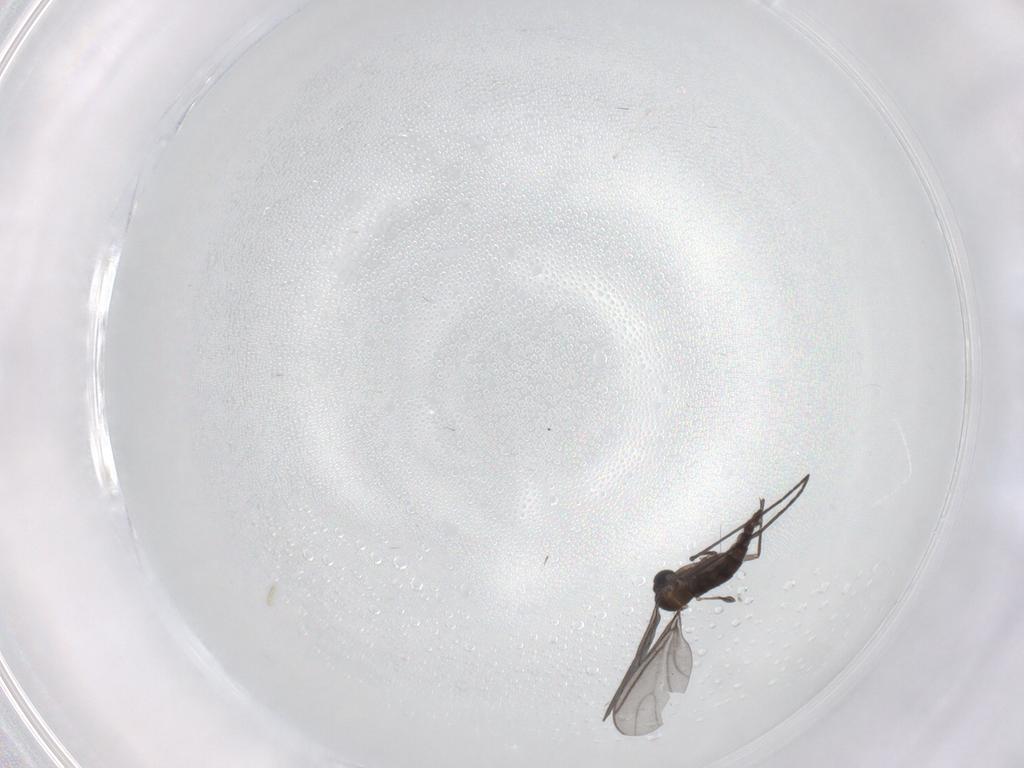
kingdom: Animalia
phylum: Arthropoda
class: Insecta
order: Diptera
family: Sciaridae
